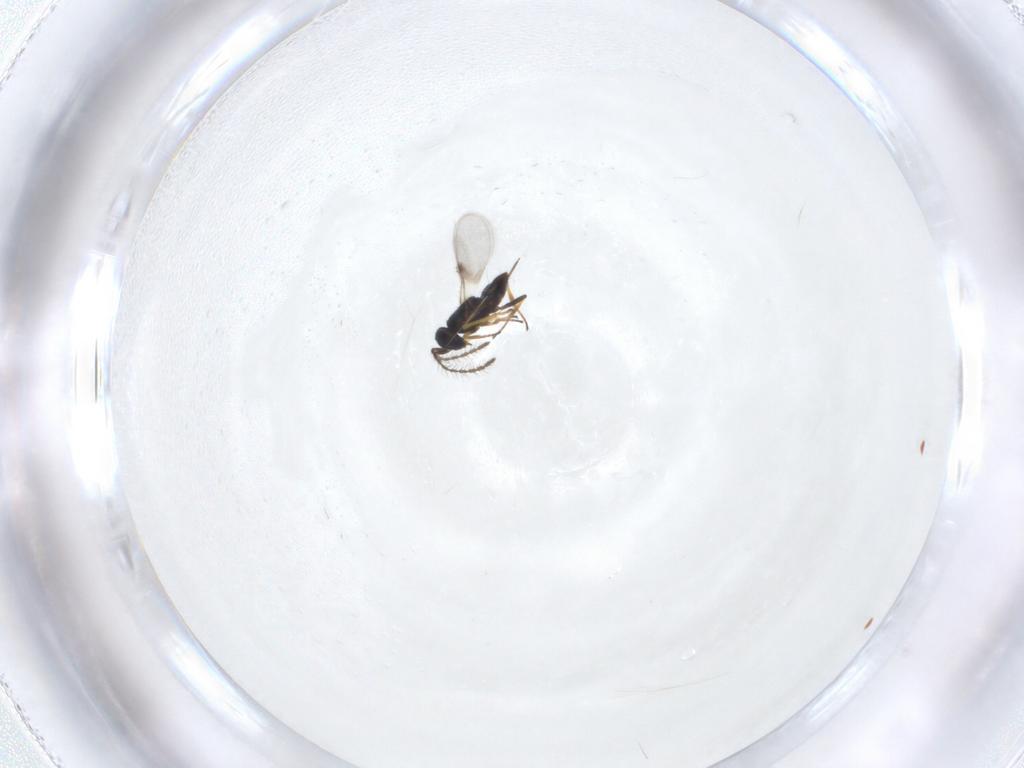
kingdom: Animalia
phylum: Arthropoda
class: Insecta
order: Hymenoptera
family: Encyrtidae
